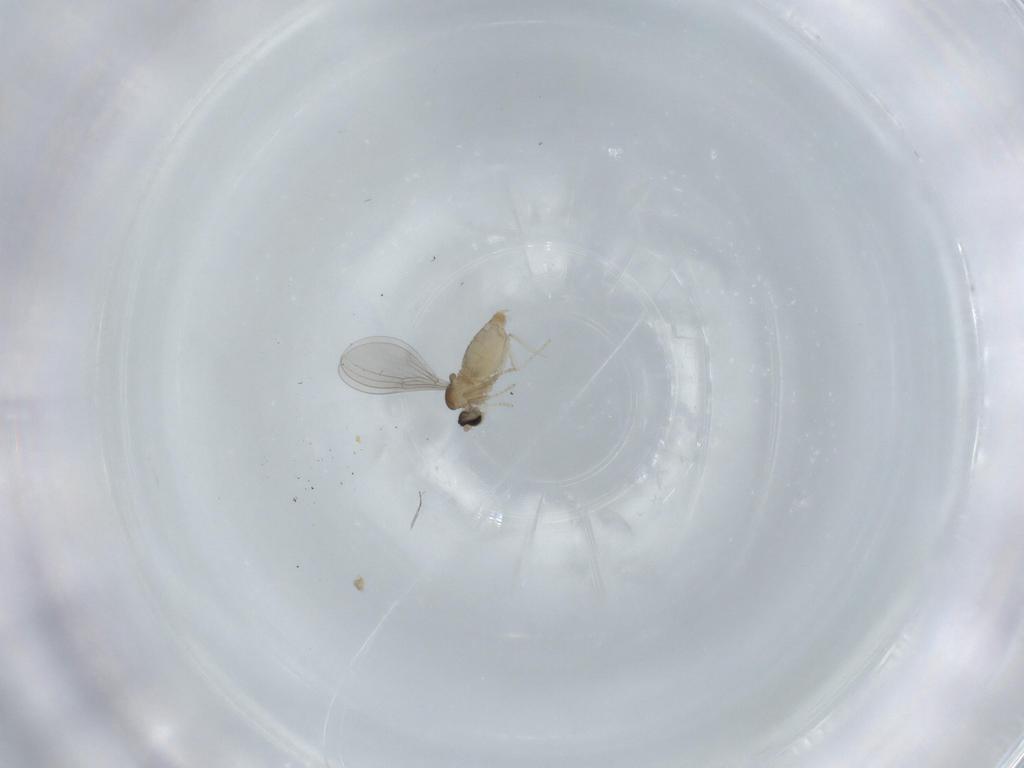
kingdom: Animalia
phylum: Arthropoda
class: Insecta
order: Diptera
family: Cecidomyiidae
